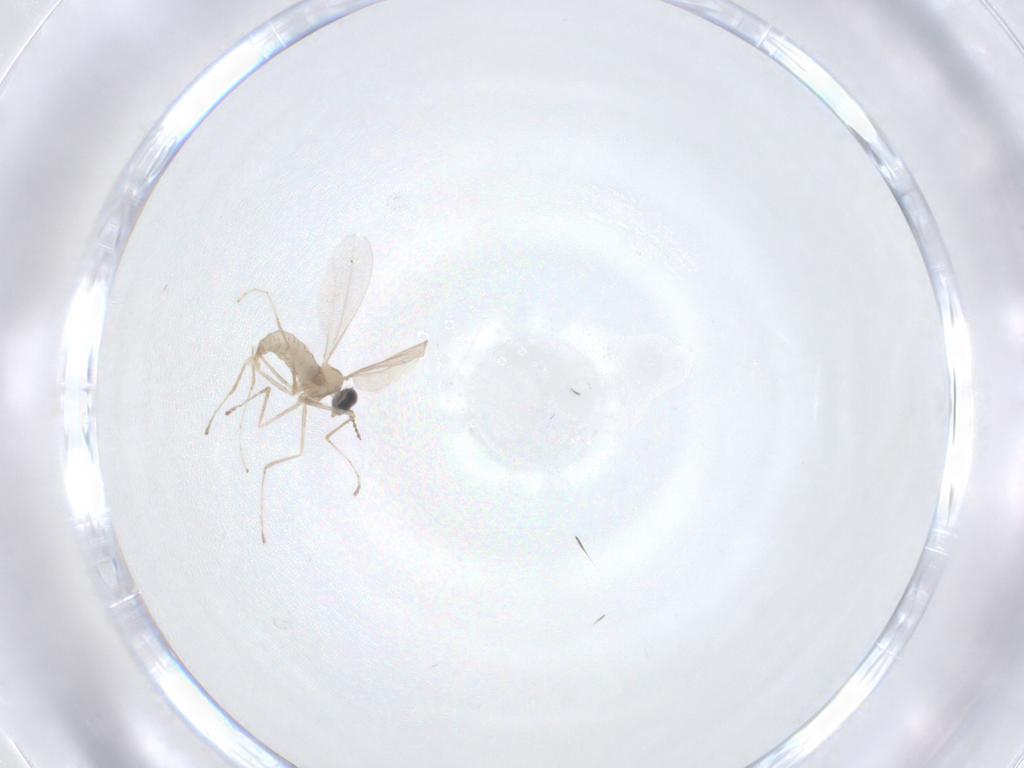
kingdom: Animalia
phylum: Arthropoda
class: Insecta
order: Diptera
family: Cecidomyiidae
